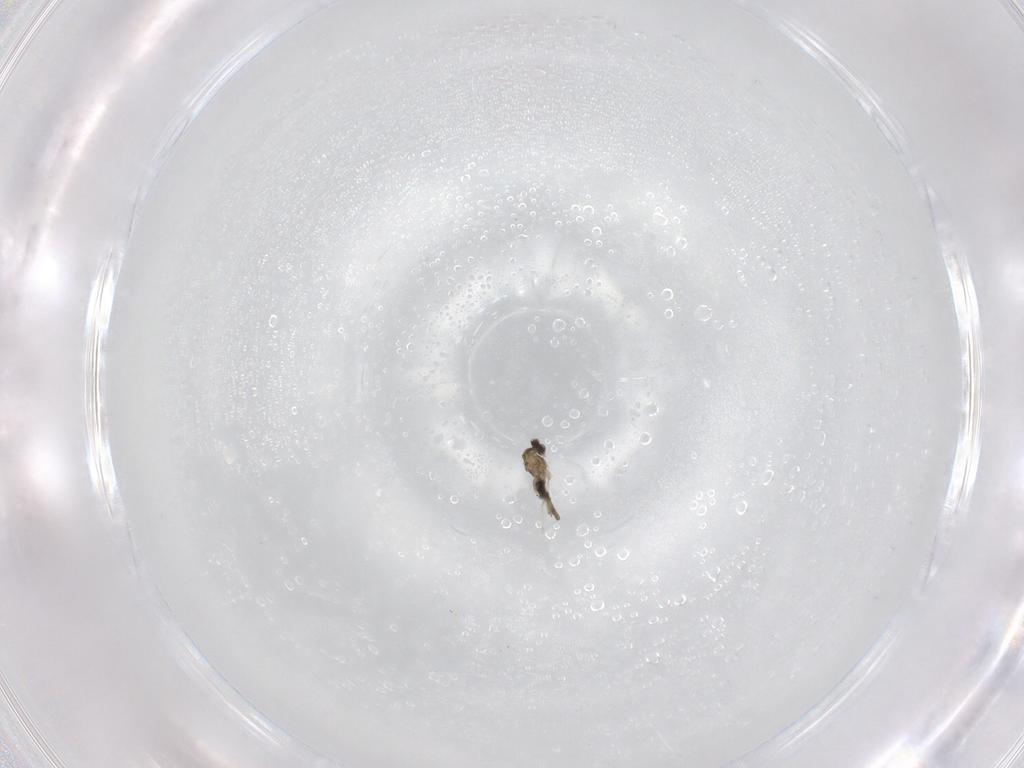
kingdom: Animalia
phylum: Arthropoda
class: Insecta
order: Diptera
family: Cecidomyiidae
